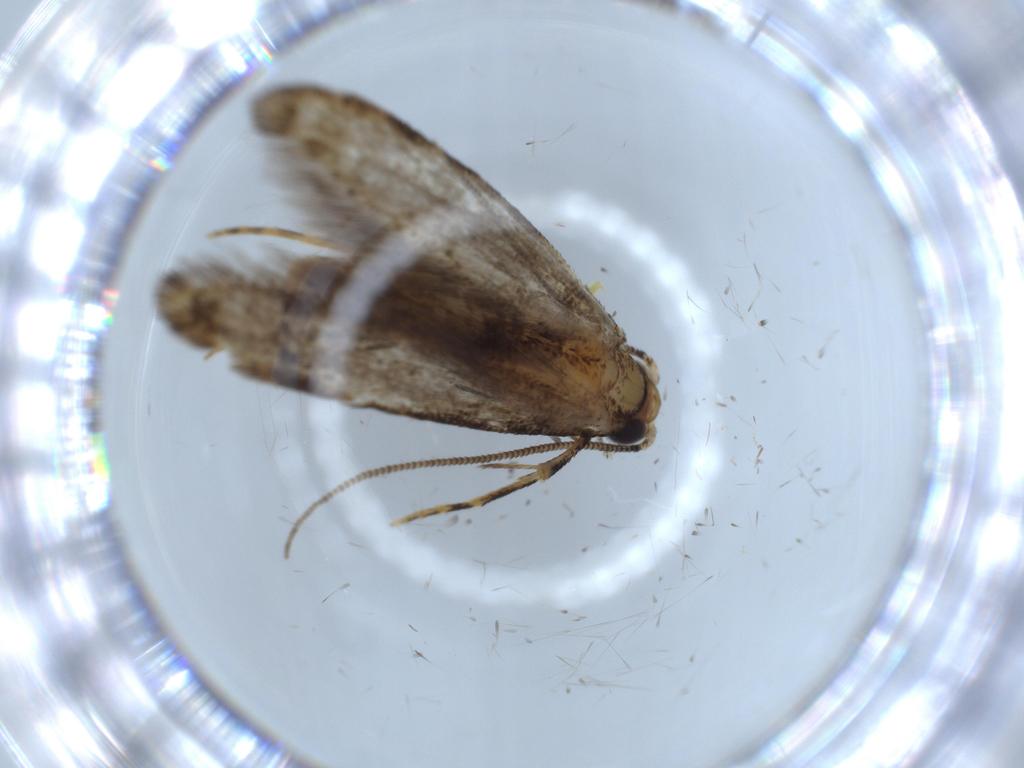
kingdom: Animalia
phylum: Arthropoda
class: Insecta
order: Lepidoptera
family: Tineidae
